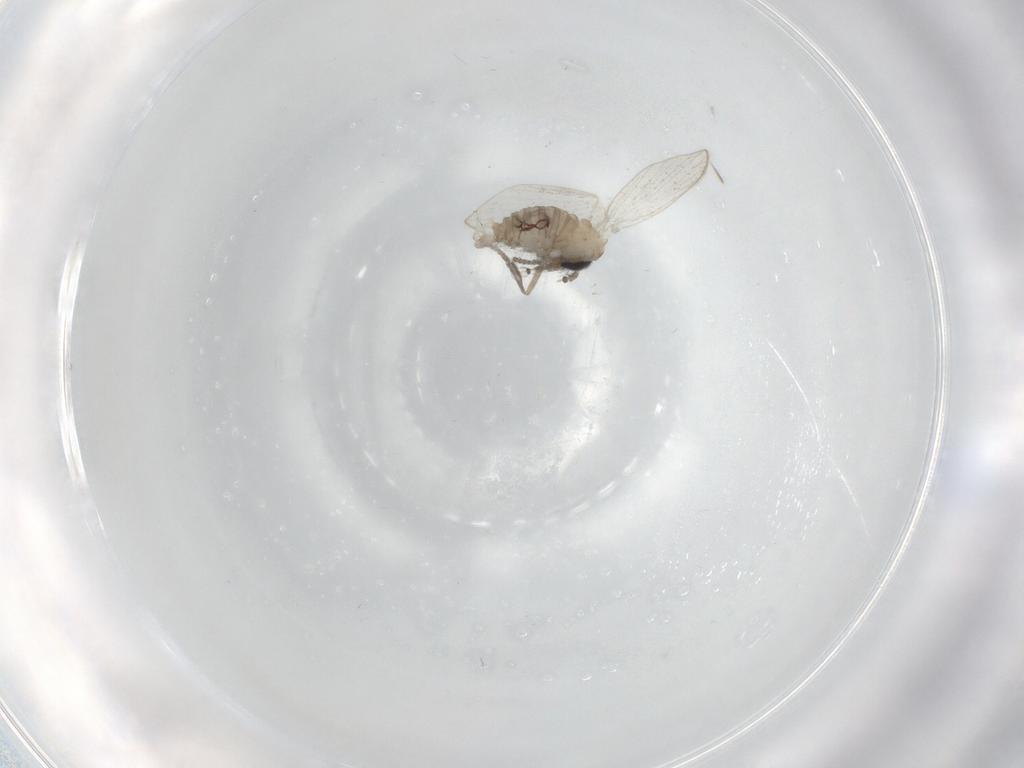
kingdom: Animalia
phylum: Arthropoda
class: Insecta
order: Diptera
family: Psychodidae
